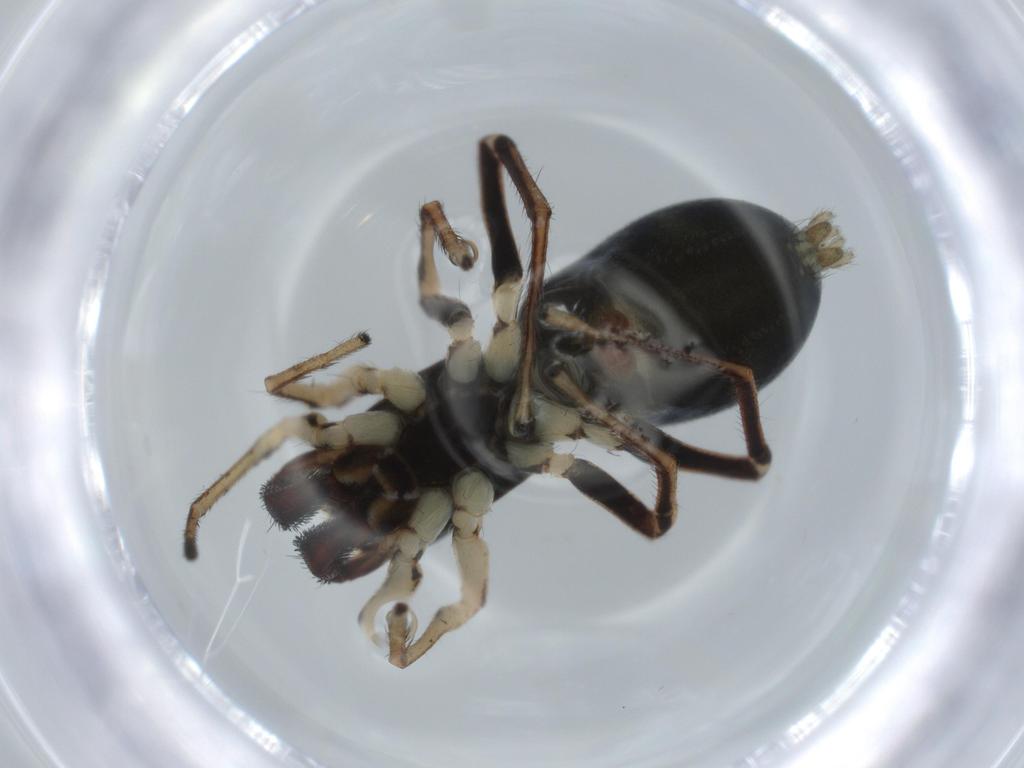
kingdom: Animalia
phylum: Arthropoda
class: Arachnida
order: Araneae
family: Salticidae
